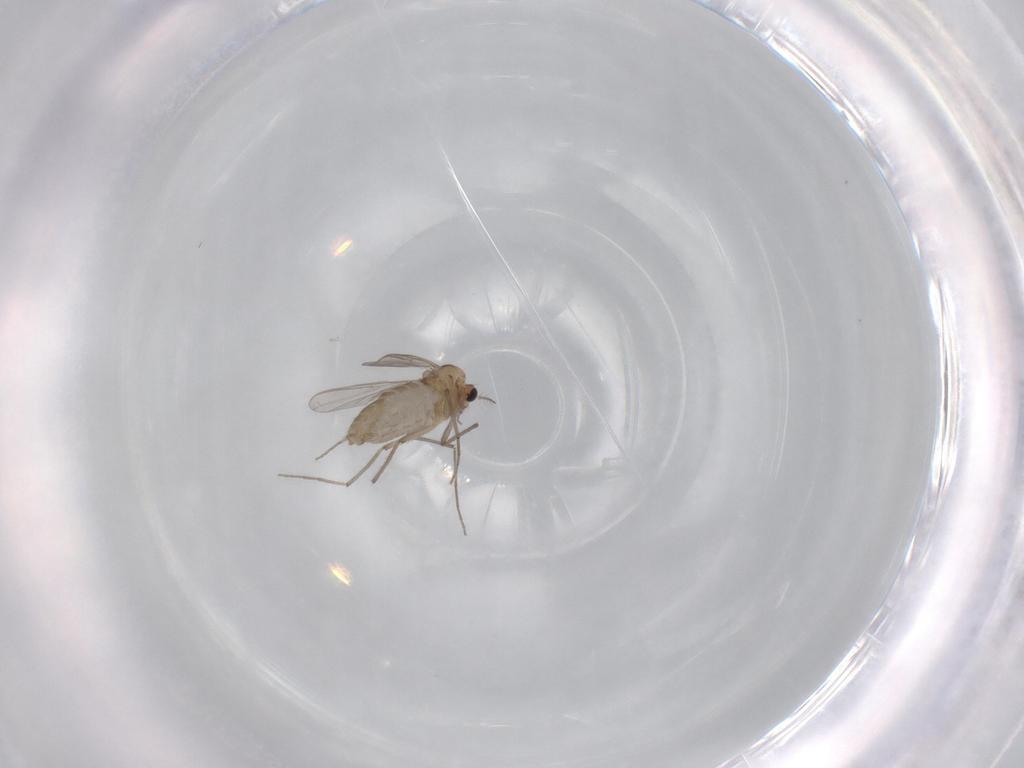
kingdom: Animalia
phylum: Arthropoda
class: Insecta
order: Diptera
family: Chironomidae
